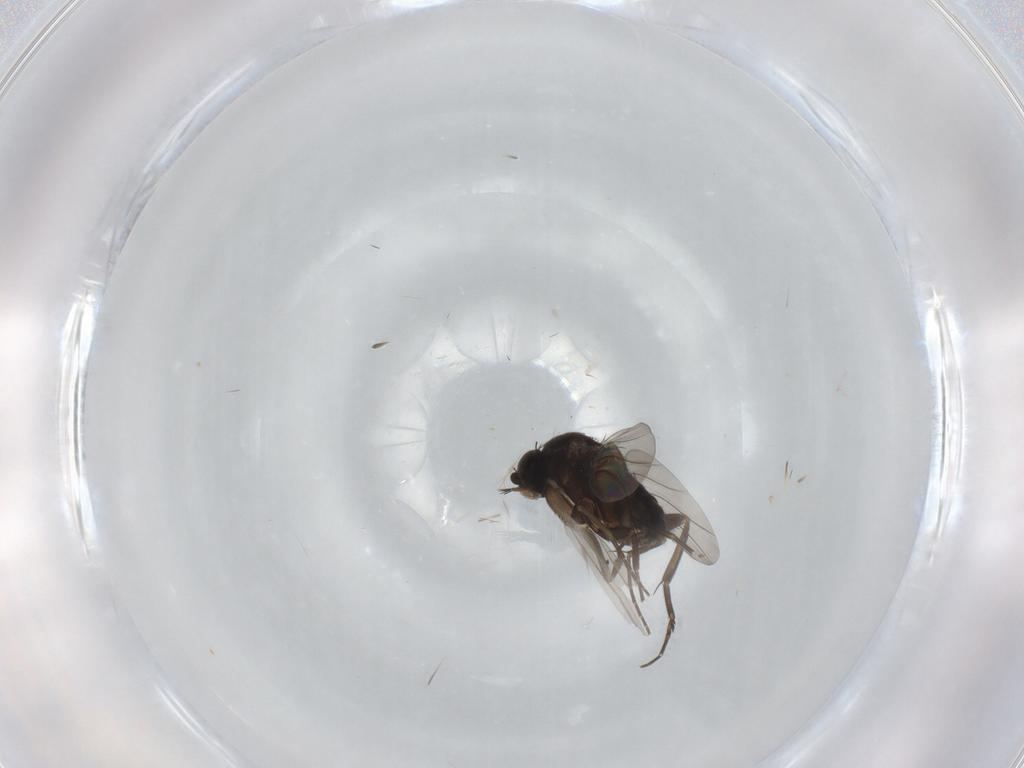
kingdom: Animalia
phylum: Arthropoda
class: Insecta
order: Diptera
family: Phoridae
